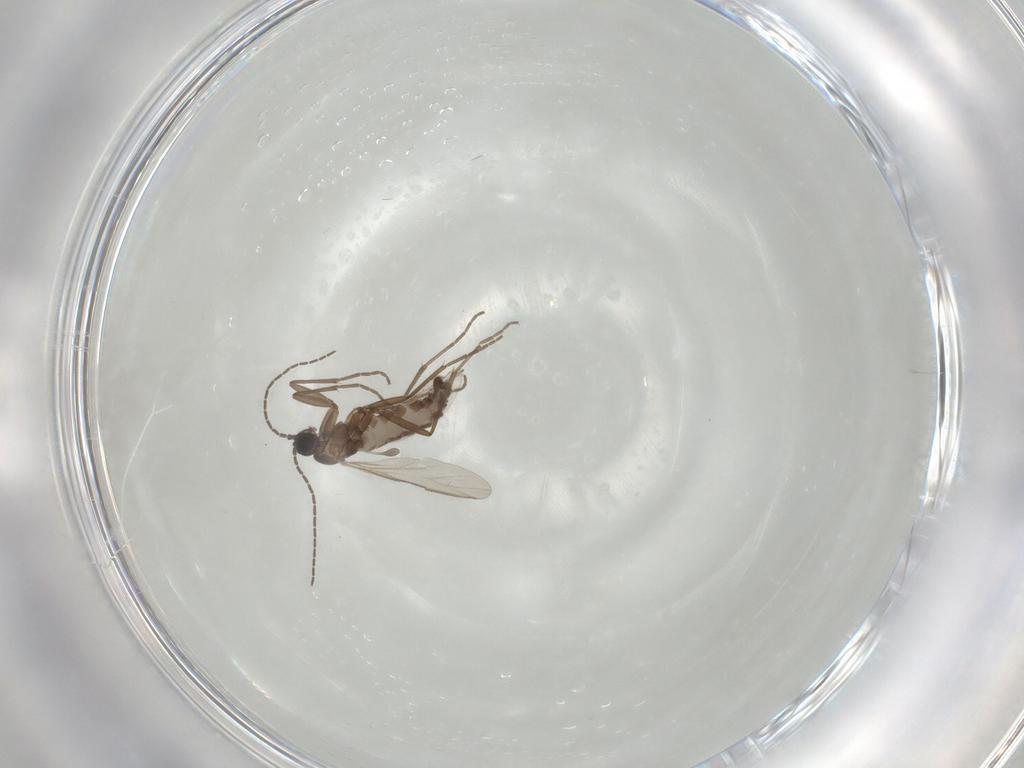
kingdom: Animalia
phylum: Arthropoda
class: Insecta
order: Diptera
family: Sciaridae
